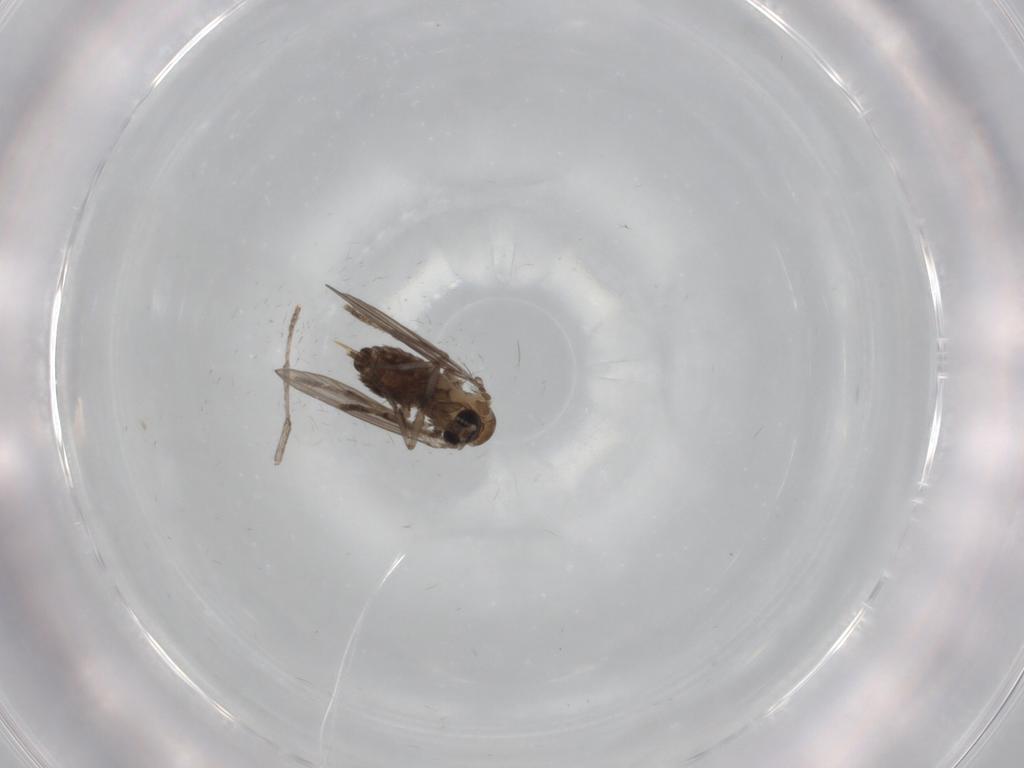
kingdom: Animalia
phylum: Arthropoda
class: Insecta
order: Diptera
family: Psychodidae
